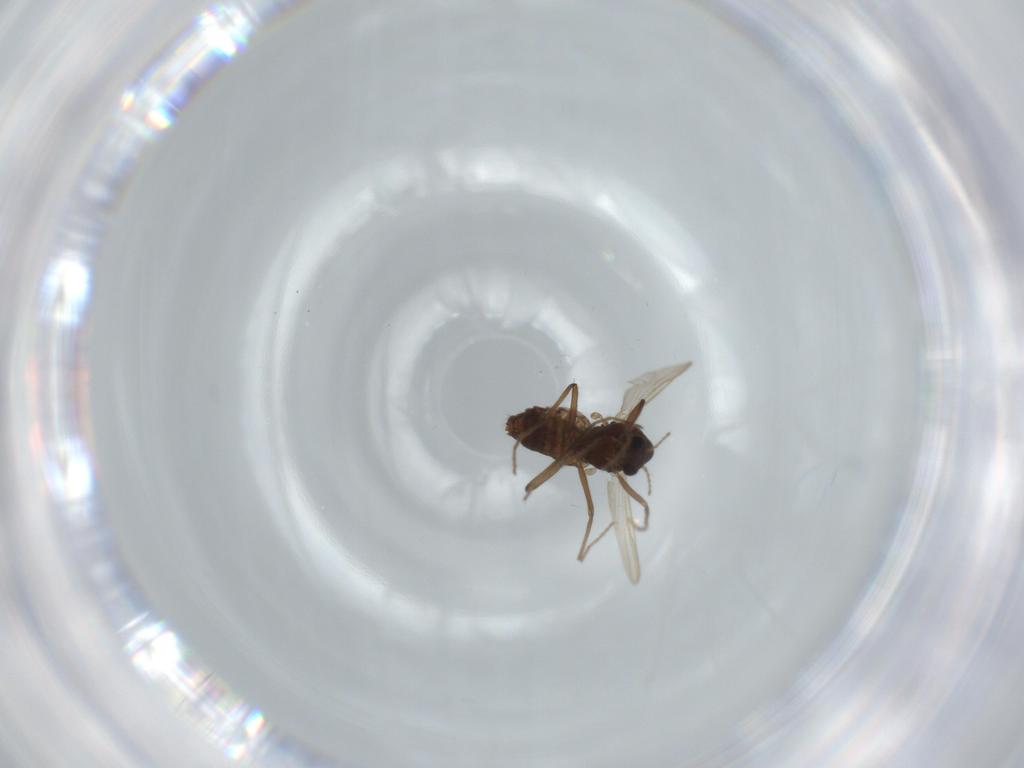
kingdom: Animalia
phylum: Arthropoda
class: Insecta
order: Diptera
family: Chironomidae
